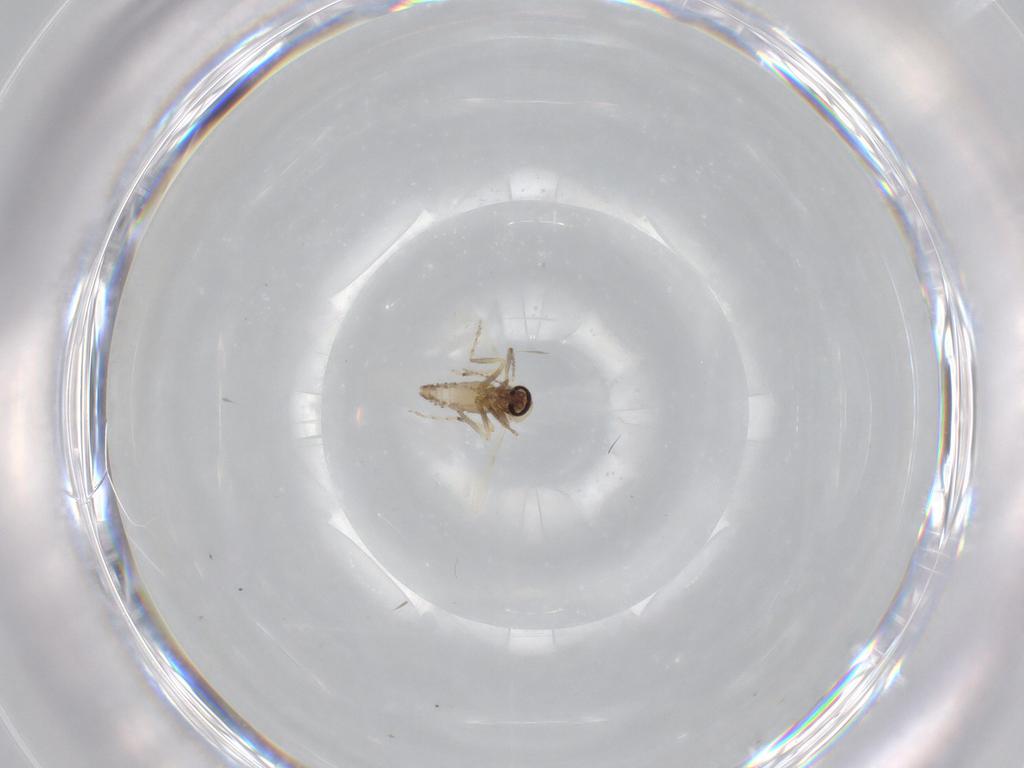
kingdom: Animalia
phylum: Arthropoda
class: Insecta
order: Diptera
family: Ceratopogonidae
